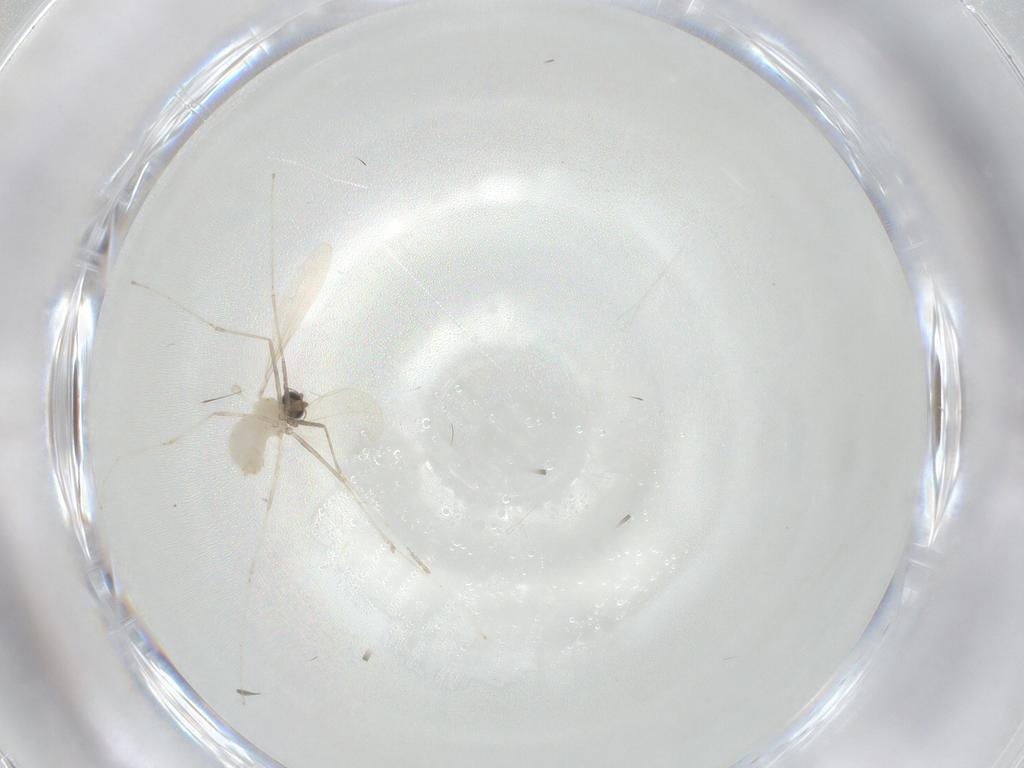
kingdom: Animalia
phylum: Arthropoda
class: Insecta
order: Diptera
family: Cecidomyiidae
